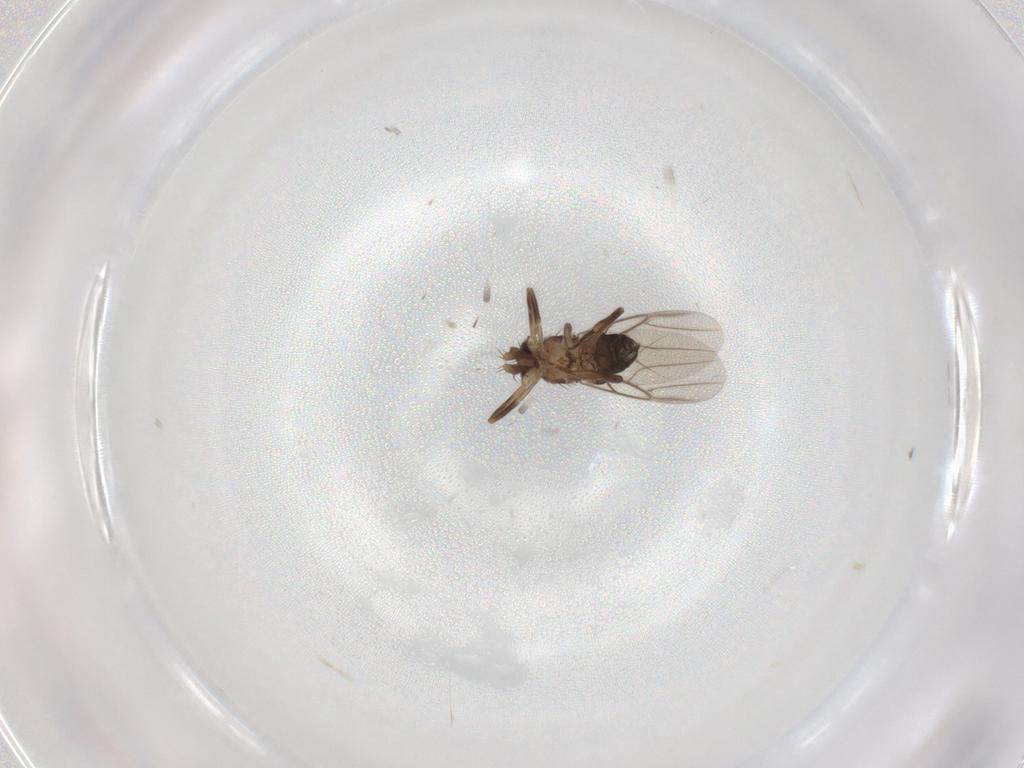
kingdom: Animalia
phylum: Arthropoda
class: Insecta
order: Diptera
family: Phoridae
